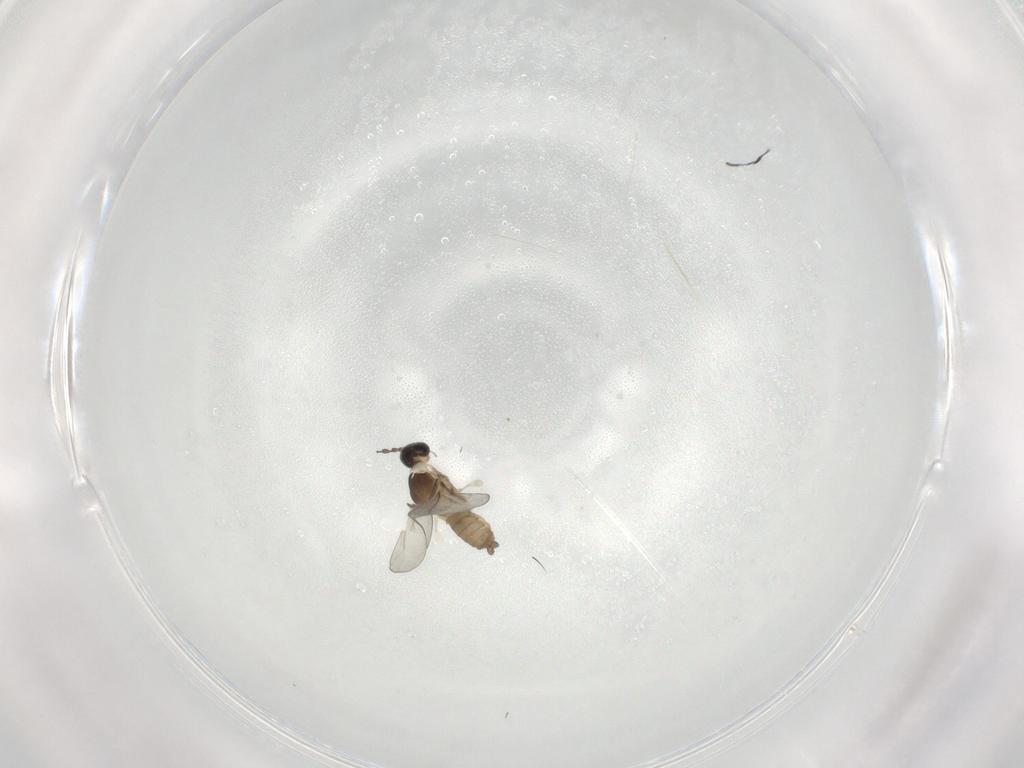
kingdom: Animalia
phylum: Arthropoda
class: Insecta
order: Diptera
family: Cecidomyiidae
